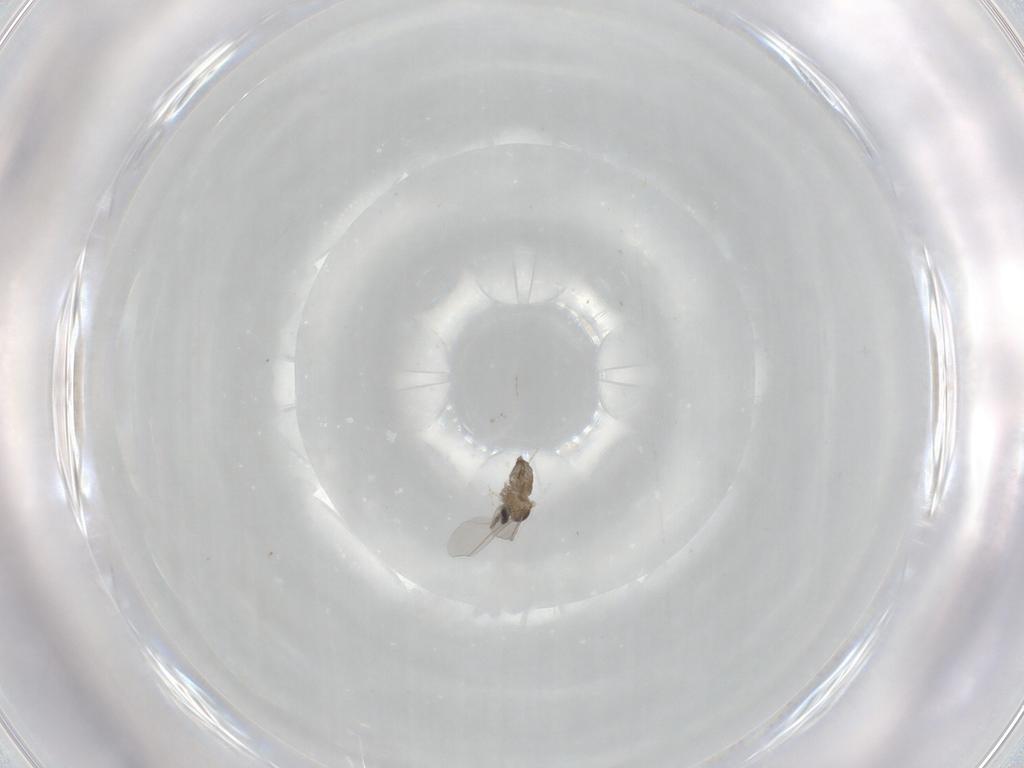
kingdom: Animalia
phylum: Arthropoda
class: Insecta
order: Diptera
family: Cecidomyiidae
